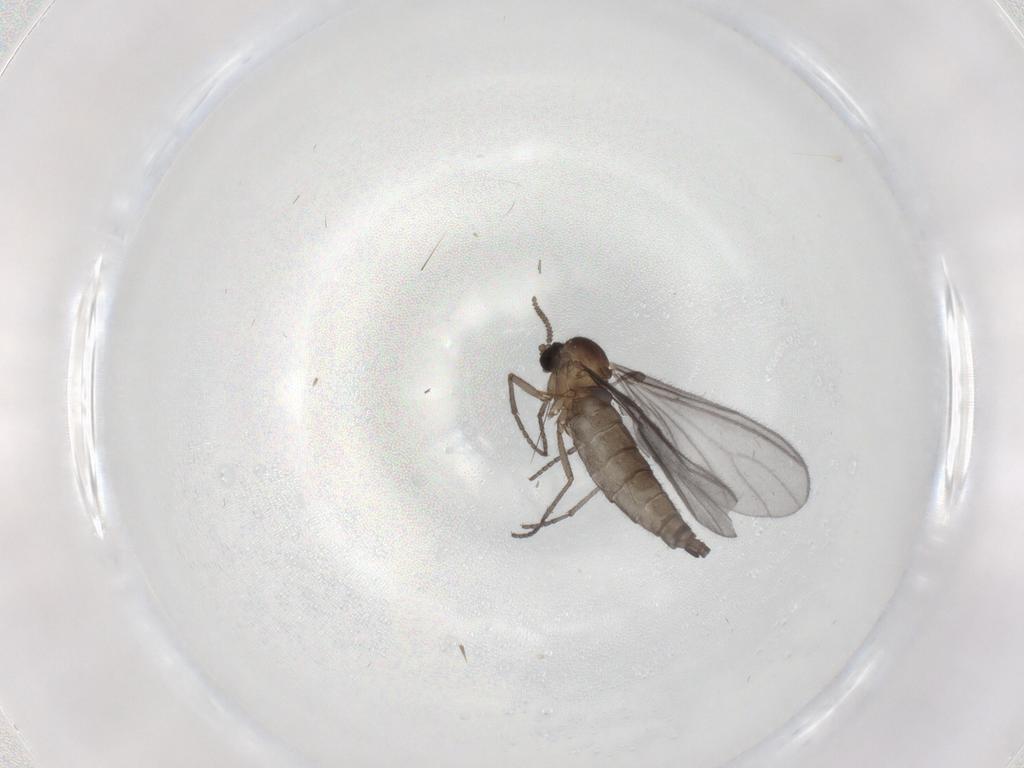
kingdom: Animalia
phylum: Arthropoda
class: Insecta
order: Diptera
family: Sciaridae
